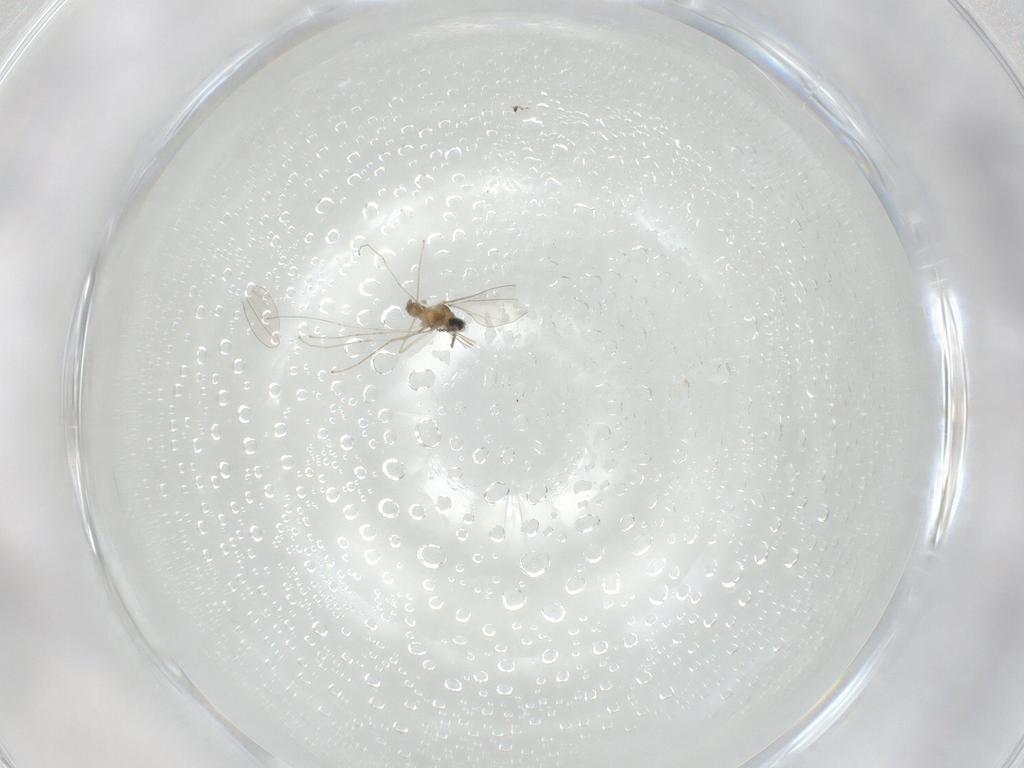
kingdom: Animalia
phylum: Arthropoda
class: Insecta
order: Diptera
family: Cecidomyiidae
